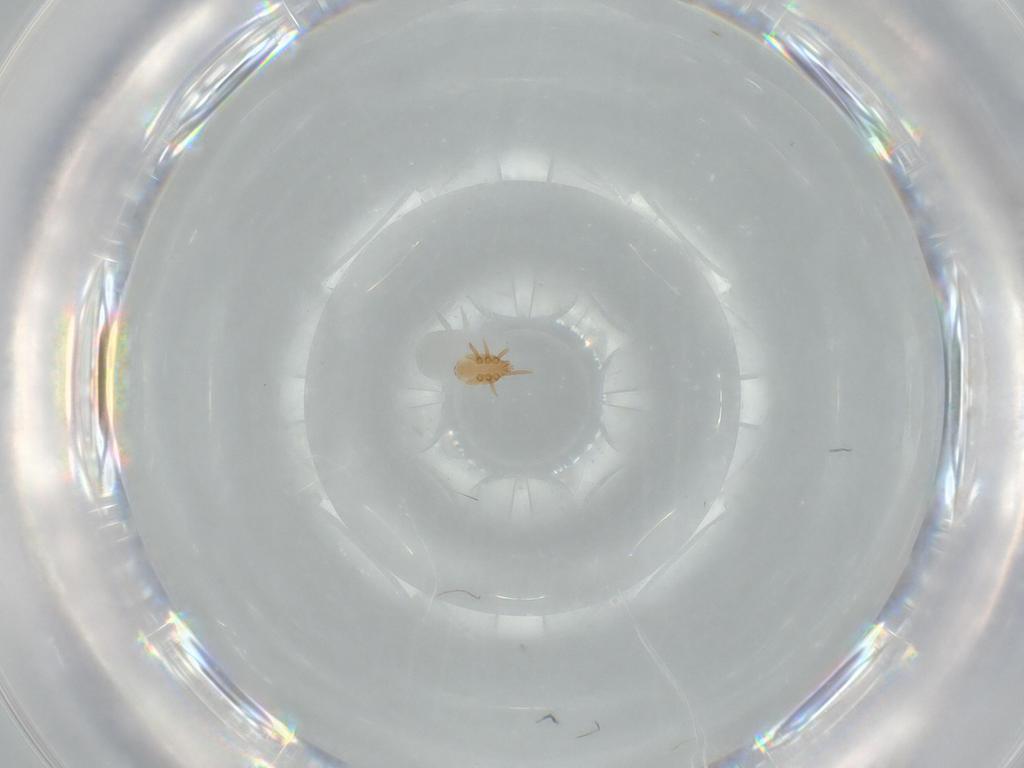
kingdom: Animalia
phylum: Arthropoda
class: Arachnida
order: Mesostigmata
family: Dinychidae
